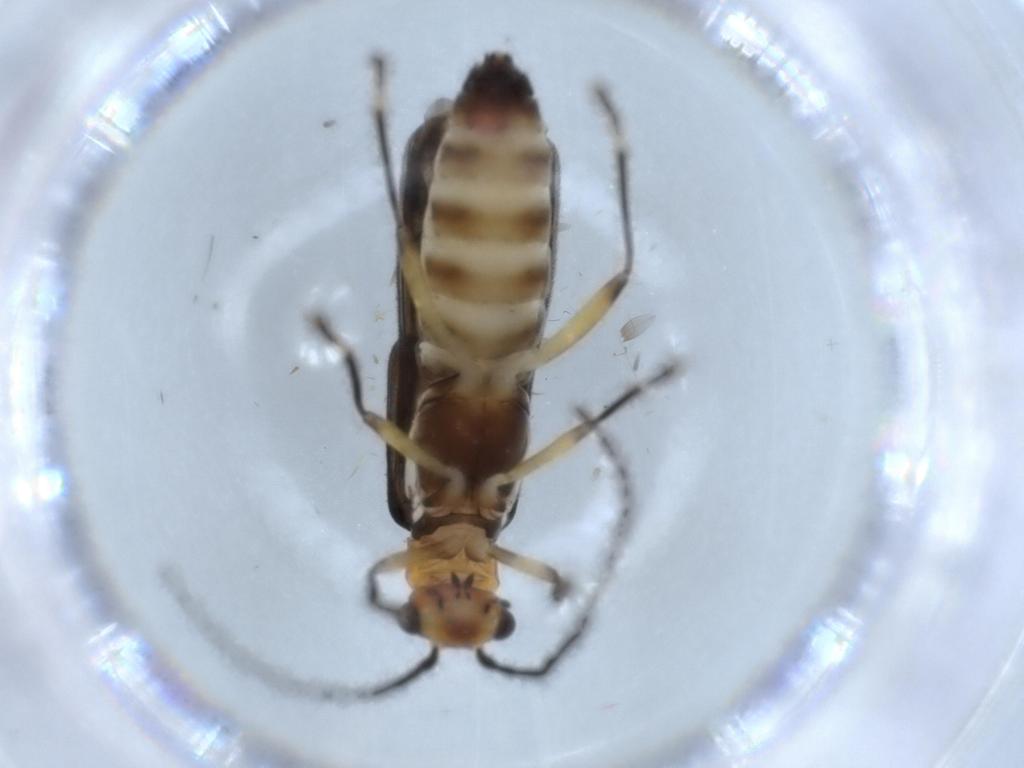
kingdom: Animalia
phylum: Arthropoda
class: Insecta
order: Coleoptera
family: Cantharidae
